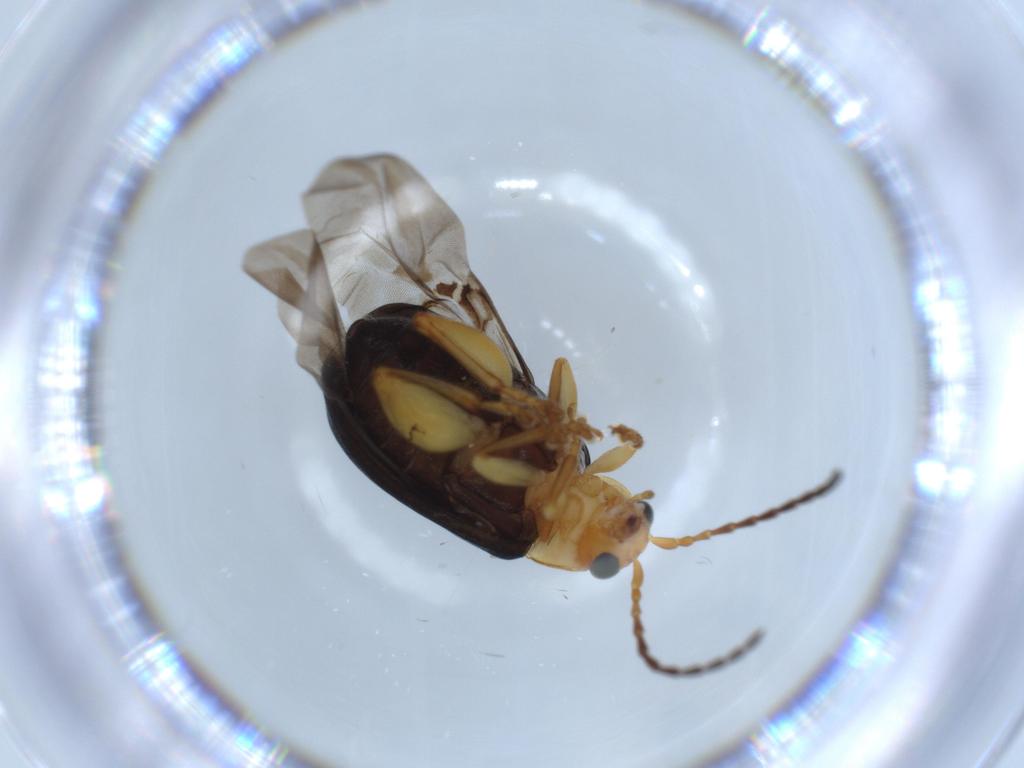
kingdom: Animalia
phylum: Arthropoda
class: Insecta
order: Coleoptera
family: Chrysomelidae
